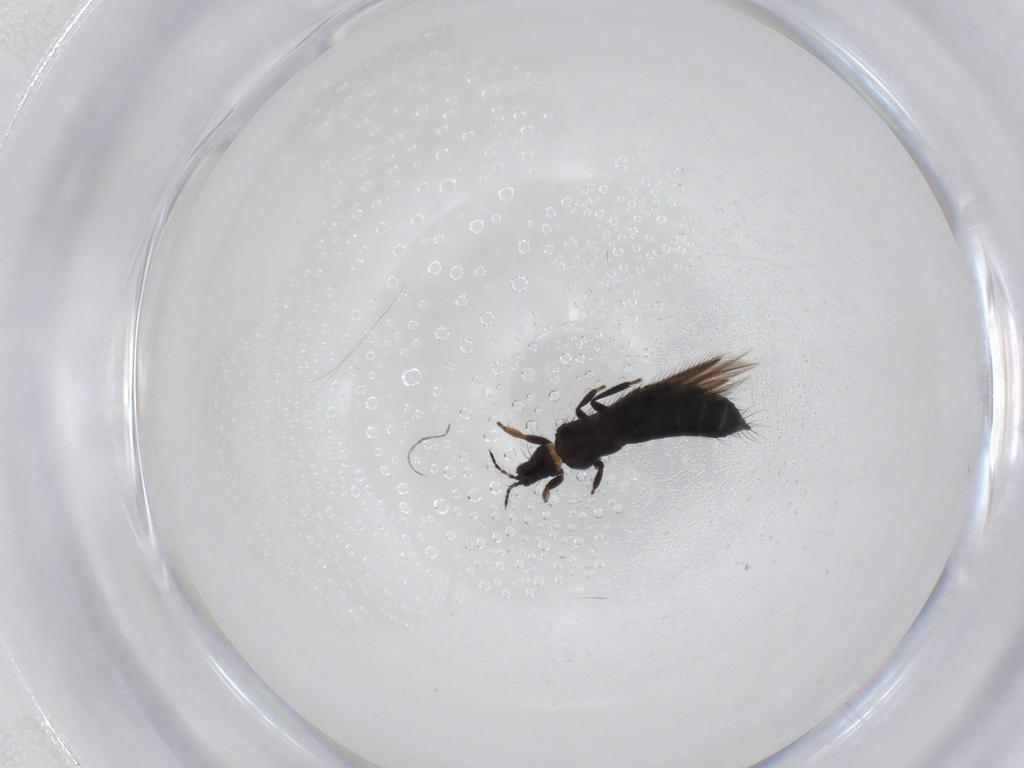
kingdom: Animalia
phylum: Arthropoda
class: Insecta
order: Thysanoptera
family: Thripidae
